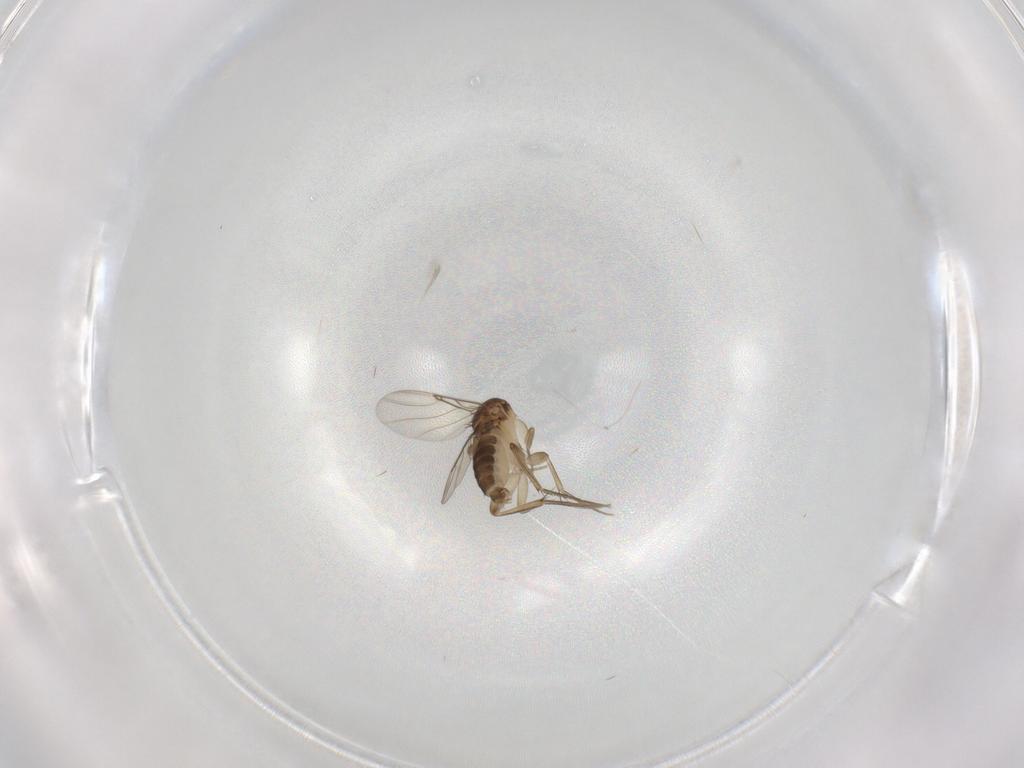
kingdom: Animalia
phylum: Arthropoda
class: Insecta
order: Diptera
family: Phoridae
